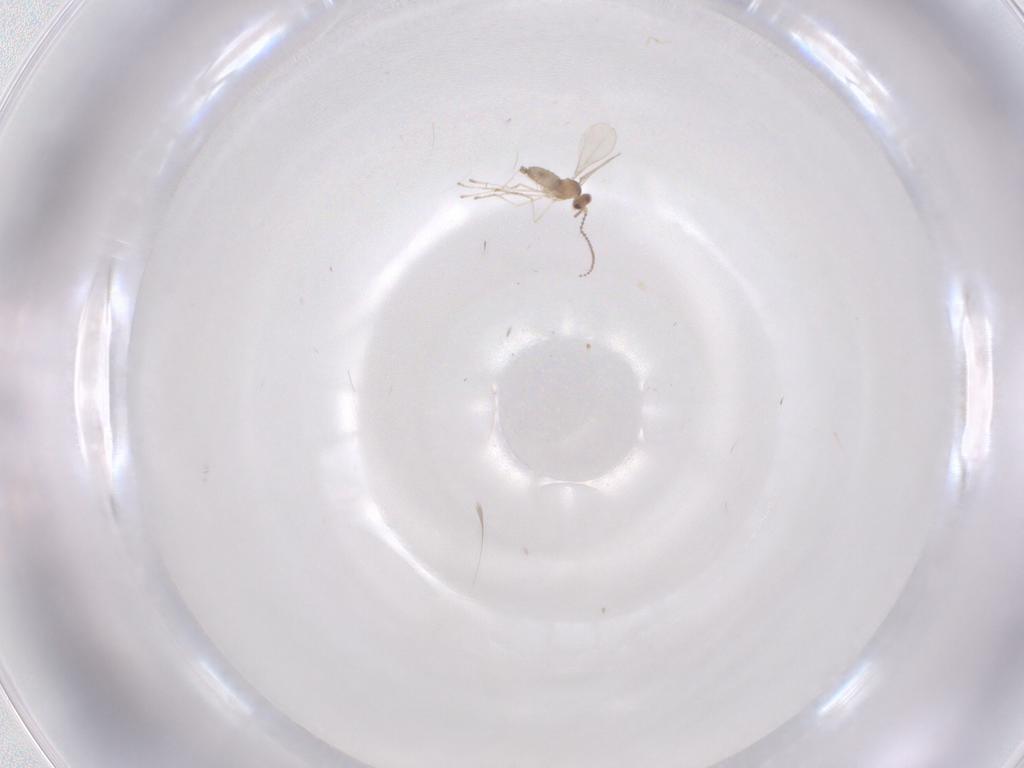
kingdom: Animalia
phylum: Arthropoda
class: Insecta
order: Diptera
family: Cecidomyiidae
